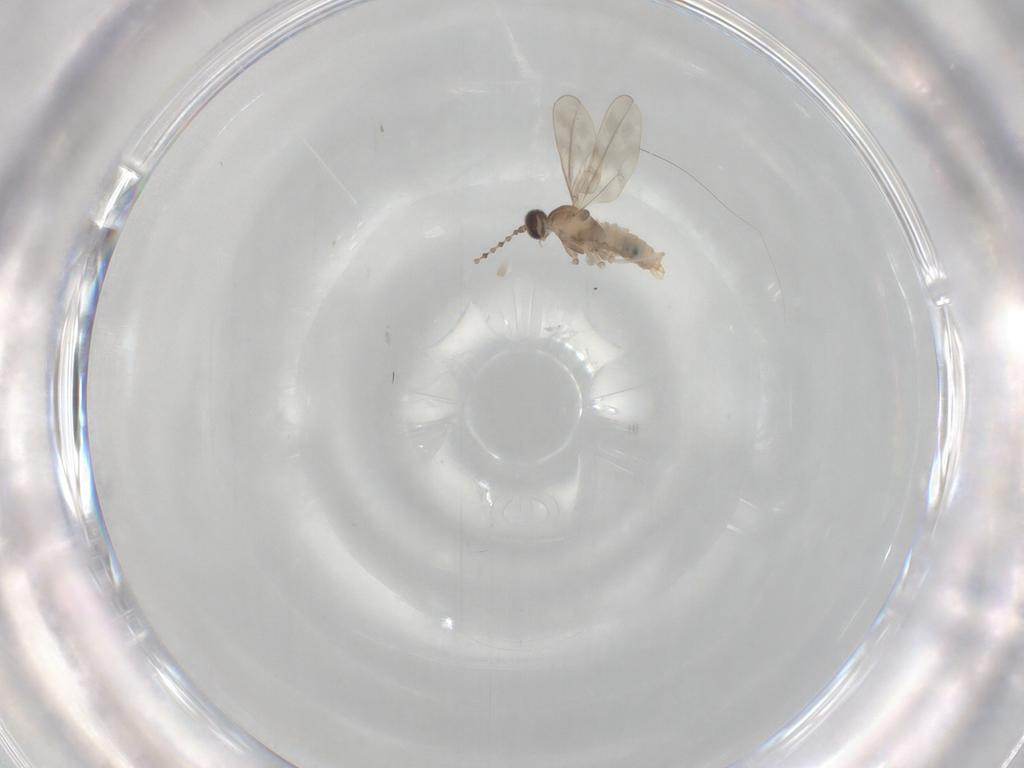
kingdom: Animalia
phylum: Arthropoda
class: Insecta
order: Diptera
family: Cecidomyiidae
